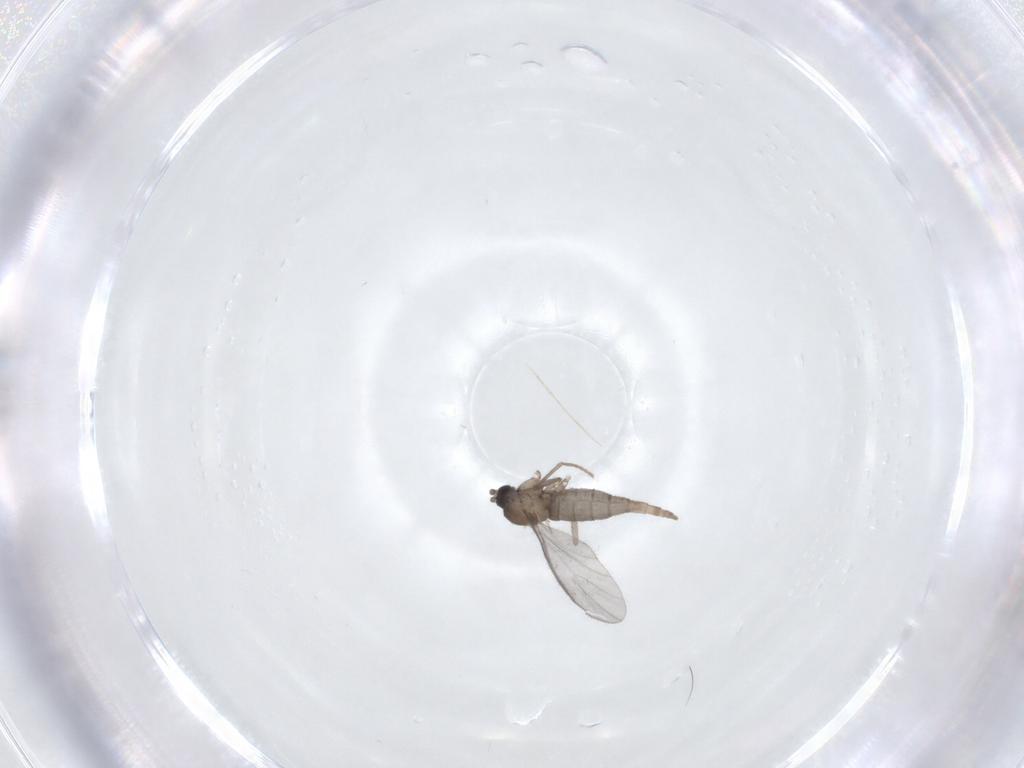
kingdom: Animalia
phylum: Arthropoda
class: Insecta
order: Diptera
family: Sciaridae
